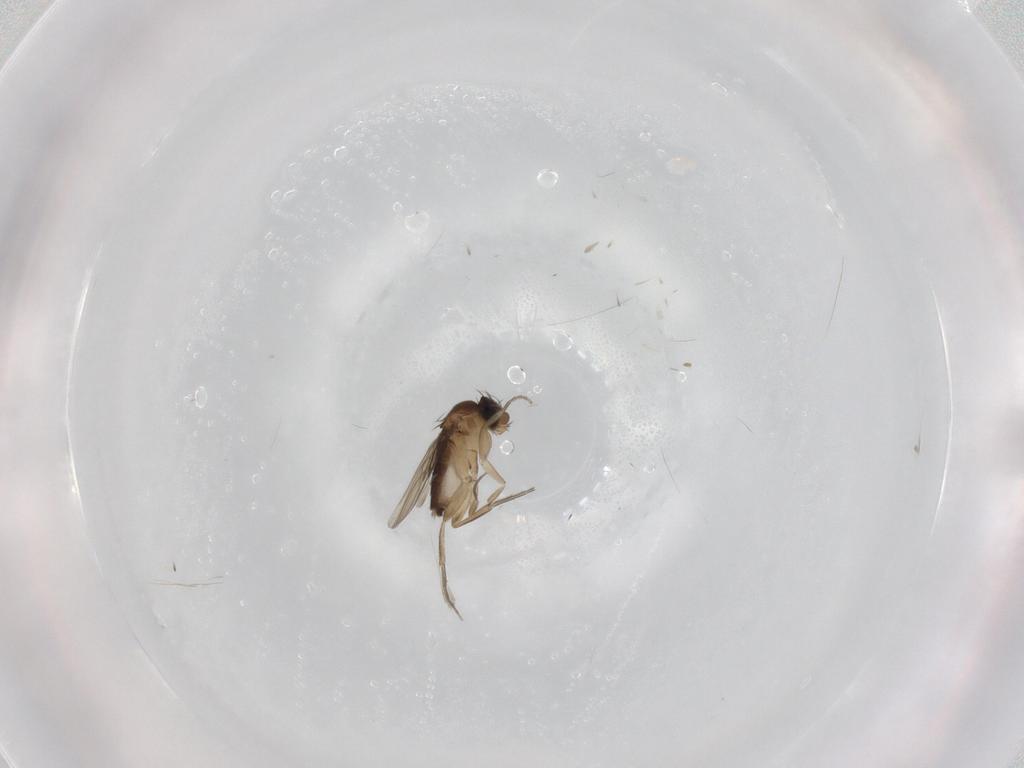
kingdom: Animalia
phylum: Arthropoda
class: Insecta
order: Diptera
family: Phoridae
